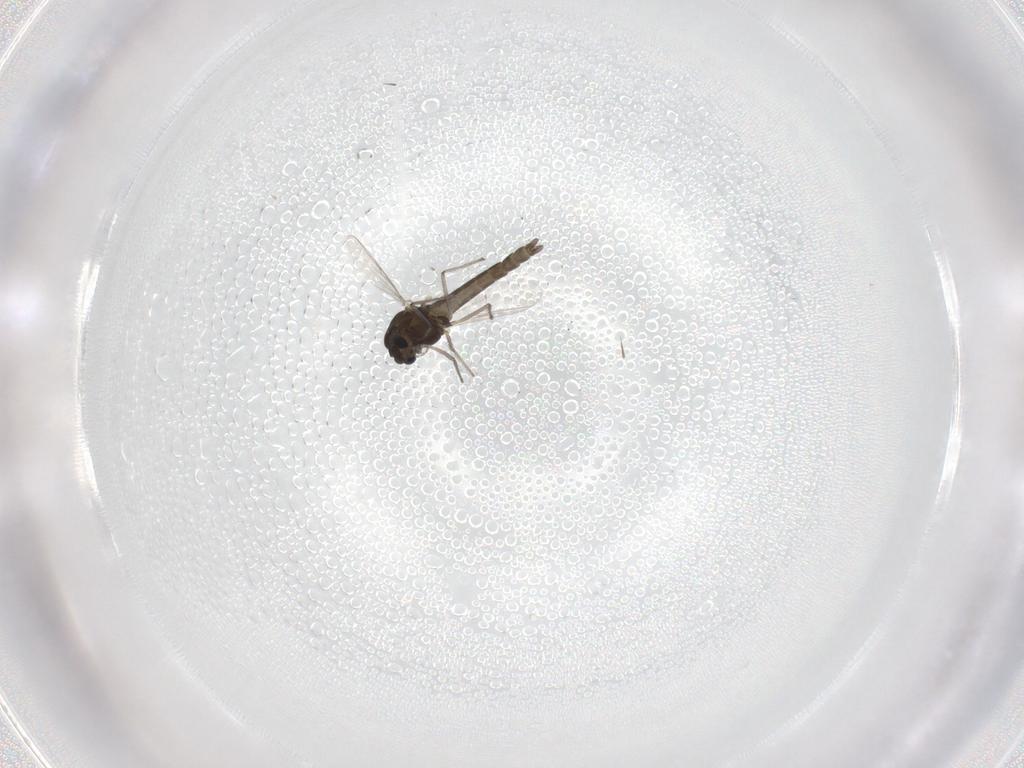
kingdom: Animalia
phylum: Arthropoda
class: Insecta
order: Diptera
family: Chironomidae
